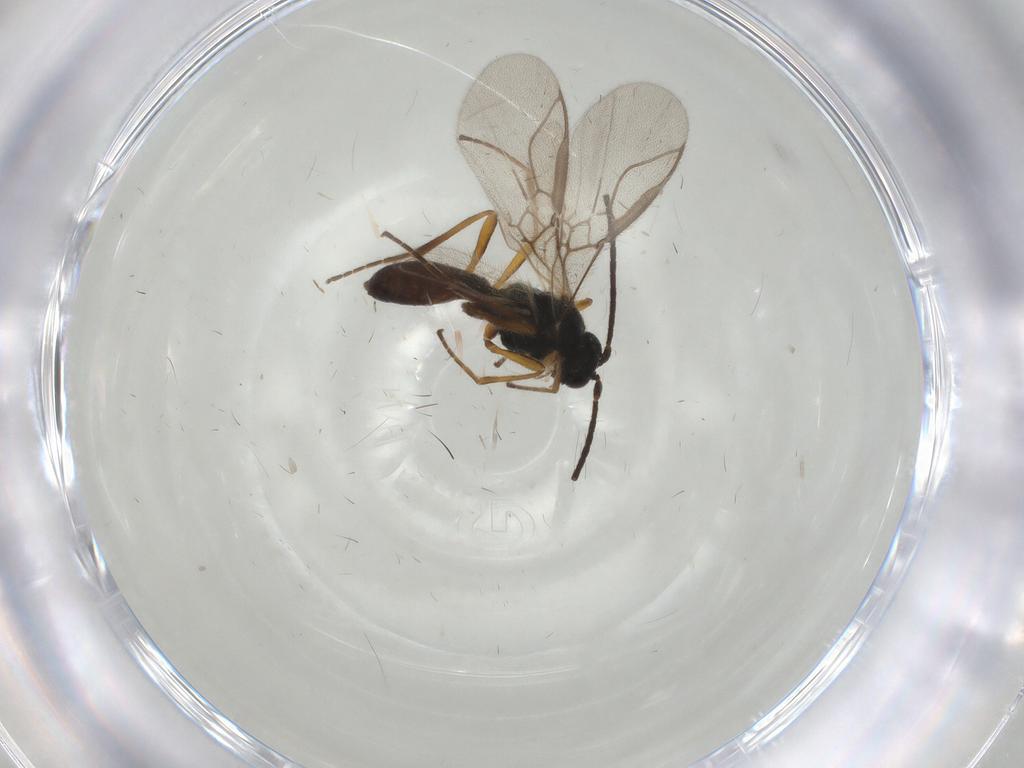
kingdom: Animalia
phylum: Arthropoda
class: Insecta
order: Hymenoptera
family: Braconidae
